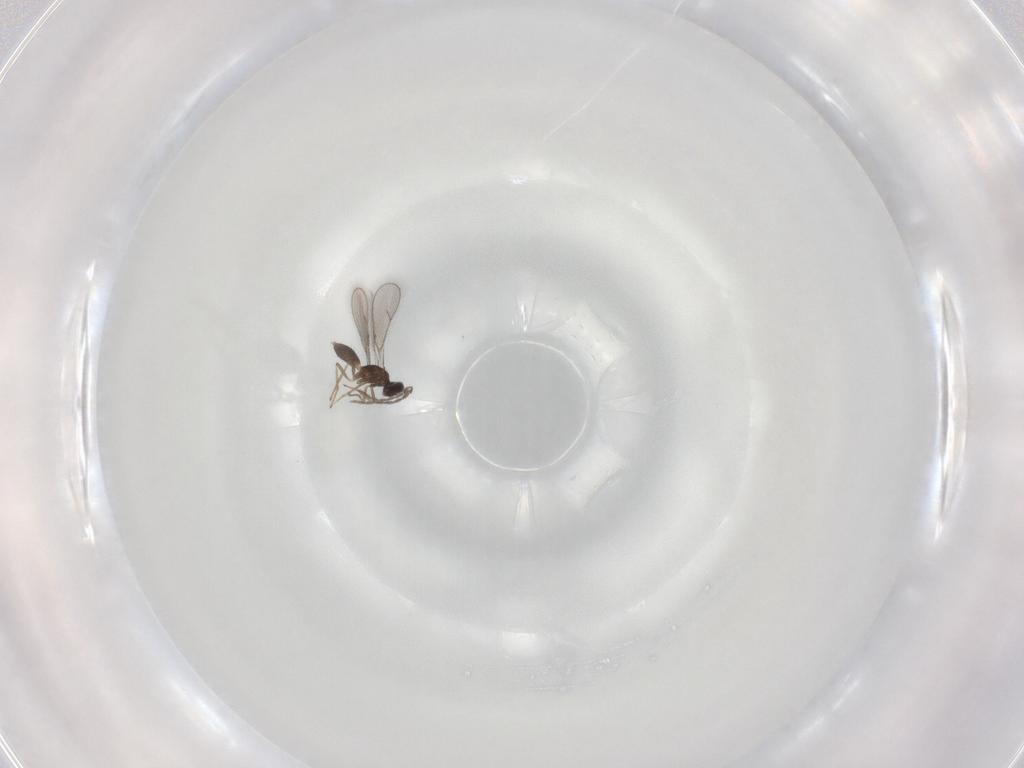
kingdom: Animalia
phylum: Arthropoda
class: Insecta
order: Hymenoptera
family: Eulophidae
